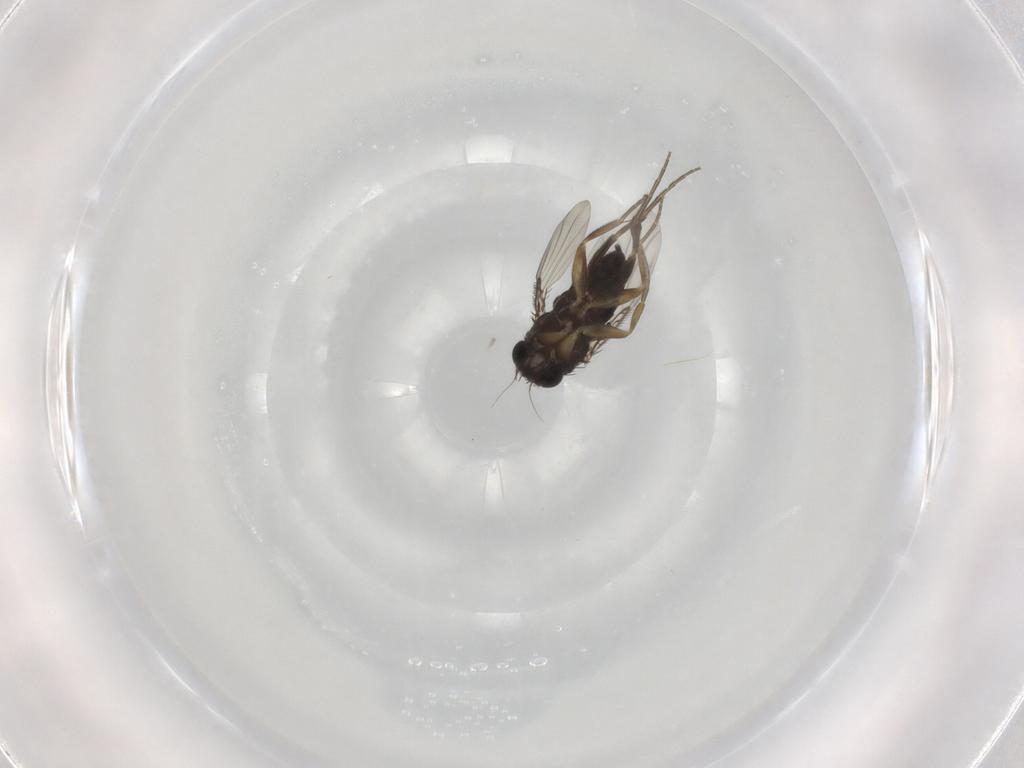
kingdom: Animalia
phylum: Arthropoda
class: Insecta
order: Diptera
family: Phoridae
